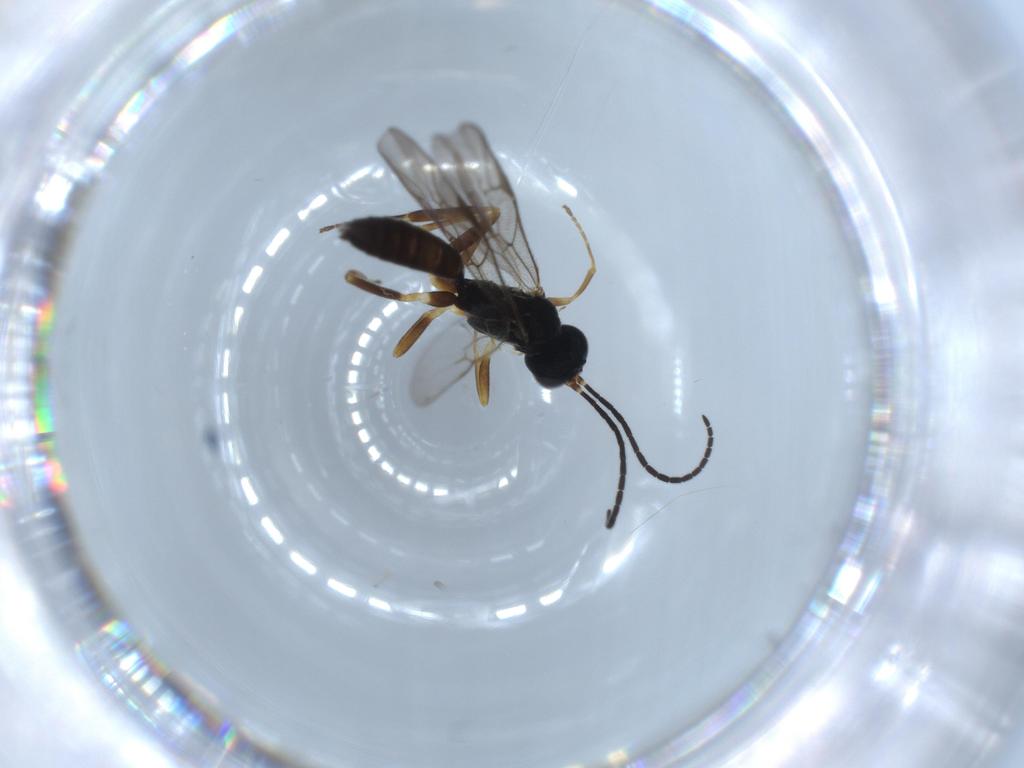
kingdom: Animalia
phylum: Arthropoda
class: Insecta
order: Hymenoptera
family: Ichneumonidae
